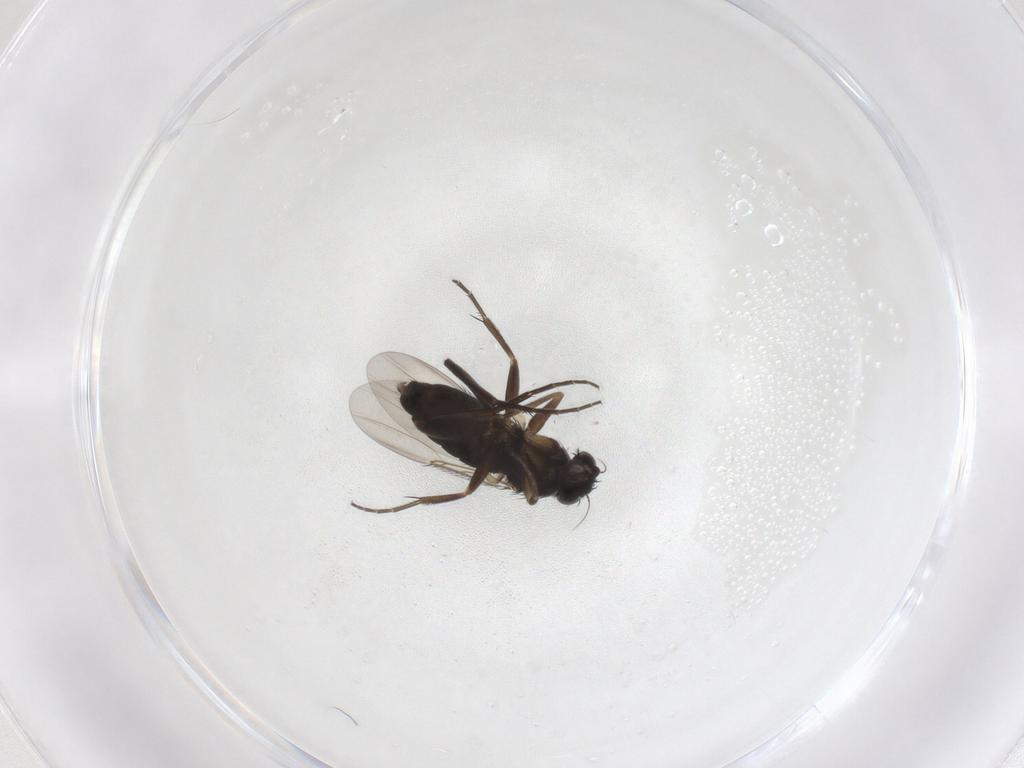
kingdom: Animalia
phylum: Arthropoda
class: Insecta
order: Diptera
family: Phoridae
